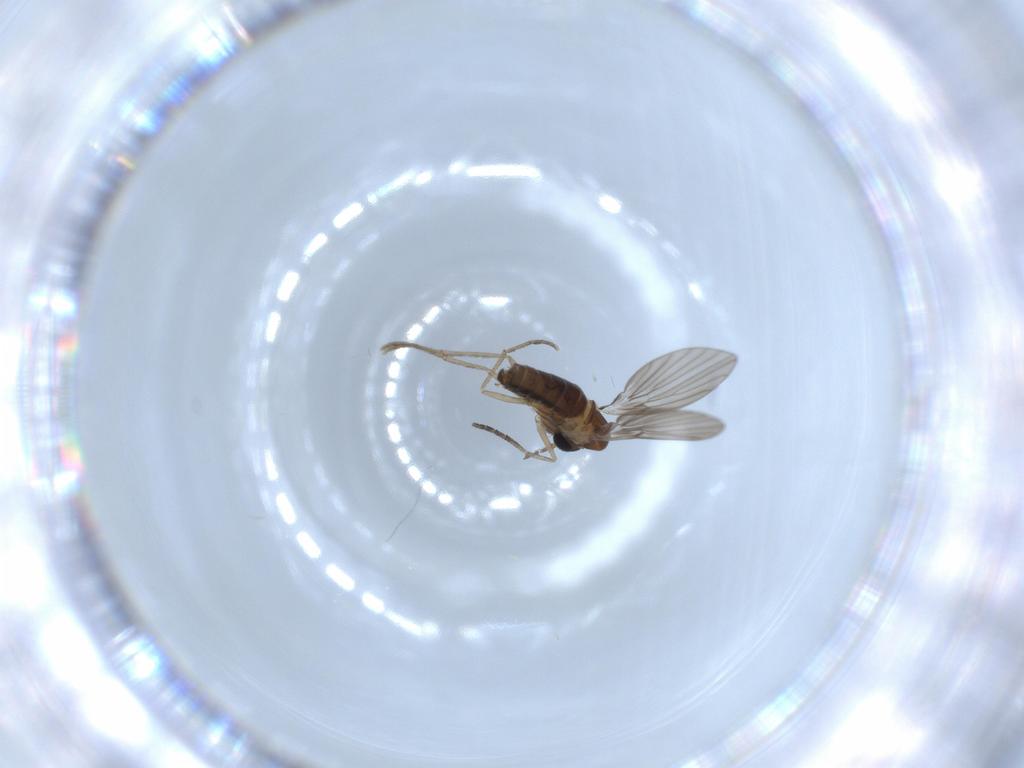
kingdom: Animalia
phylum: Arthropoda
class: Insecta
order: Diptera
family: Psychodidae
